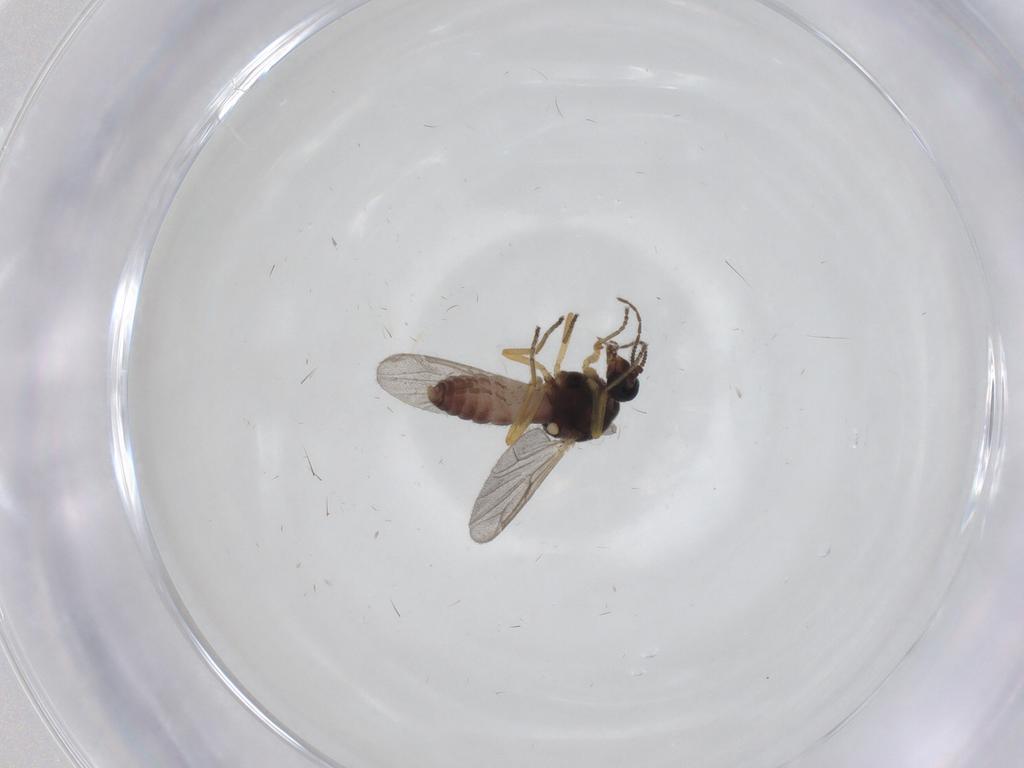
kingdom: Animalia
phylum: Arthropoda
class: Insecta
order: Diptera
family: Ceratopogonidae
